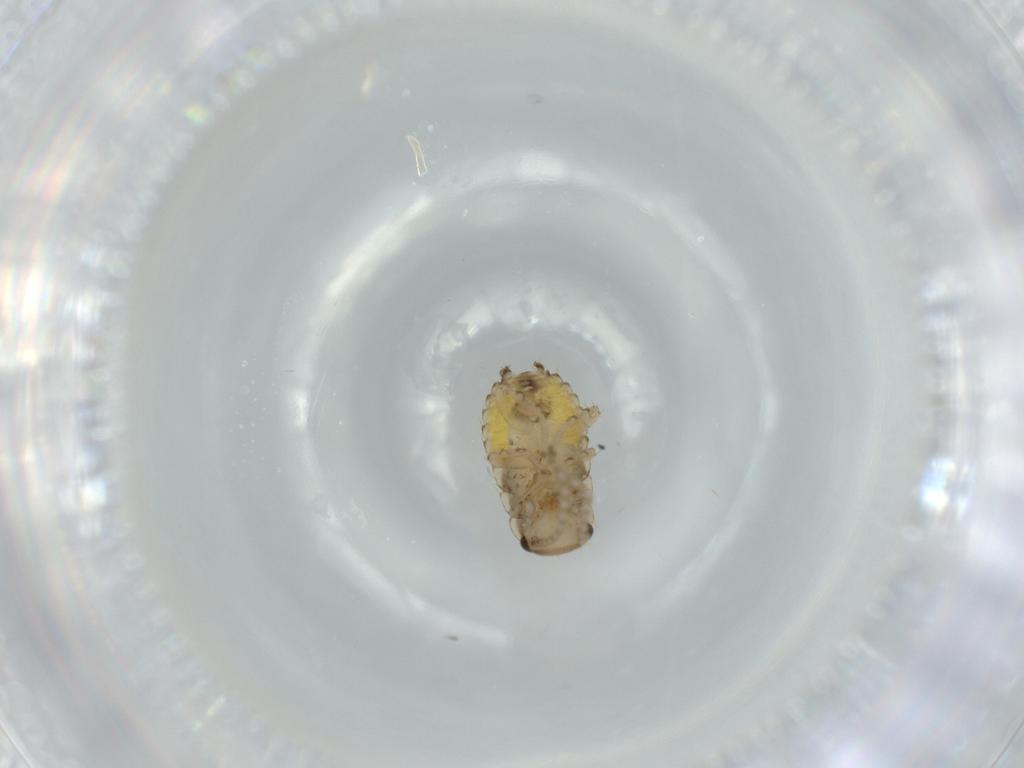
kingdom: Animalia
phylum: Arthropoda
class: Insecta
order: Blattodea
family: Ectobiidae
